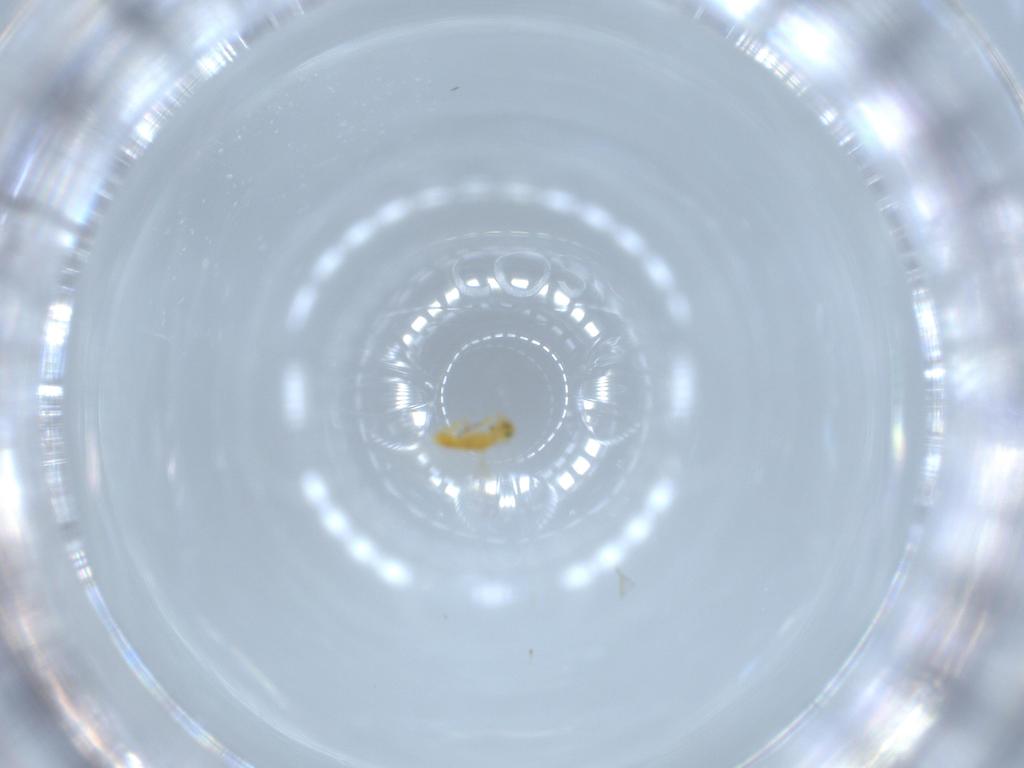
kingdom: Animalia
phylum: Arthropoda
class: Insecta
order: Hymenoptera
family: Aphelinidae
